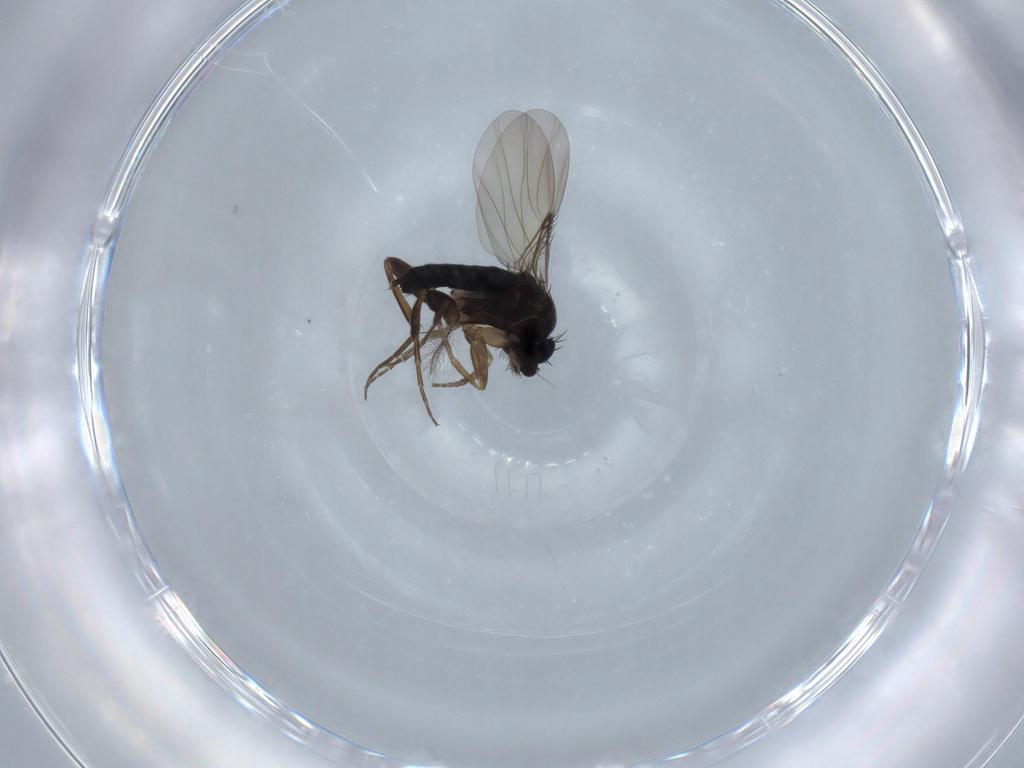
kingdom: Animalia
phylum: Arthropoda
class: Insecta
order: Diptera
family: Phoridae
